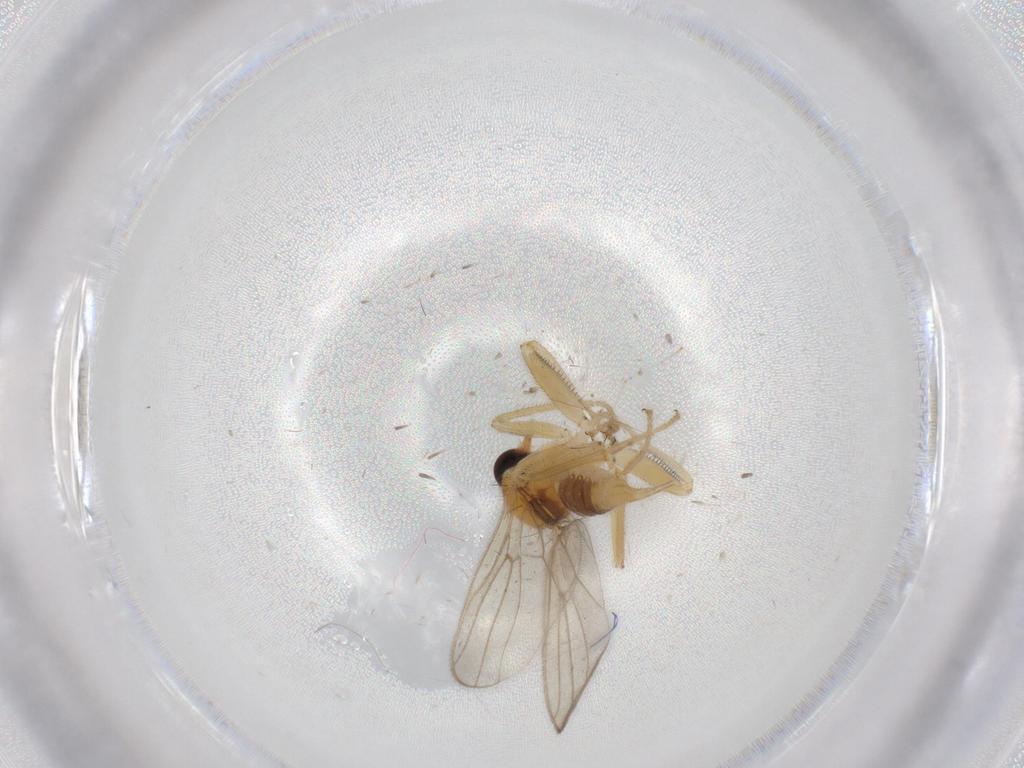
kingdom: Animalia
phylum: Arthropoda
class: Insecta
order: Diptera
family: Hybotidae
